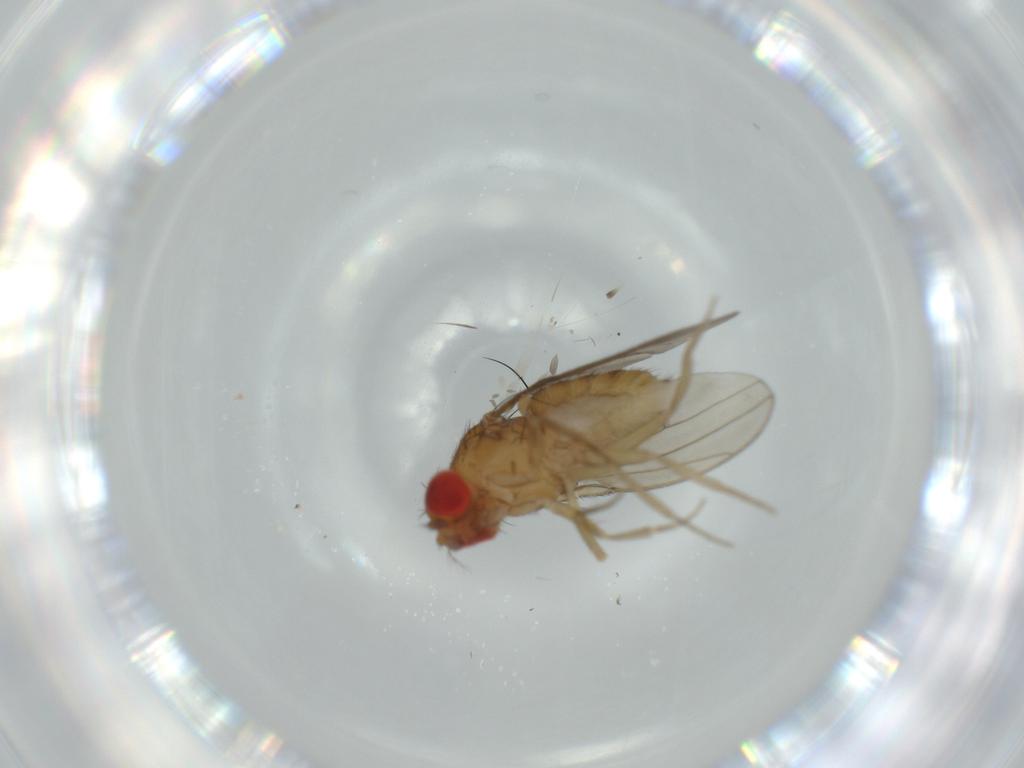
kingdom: Animalia
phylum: Arthropoda
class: Insecta
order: Diptera
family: Drosophilidae
